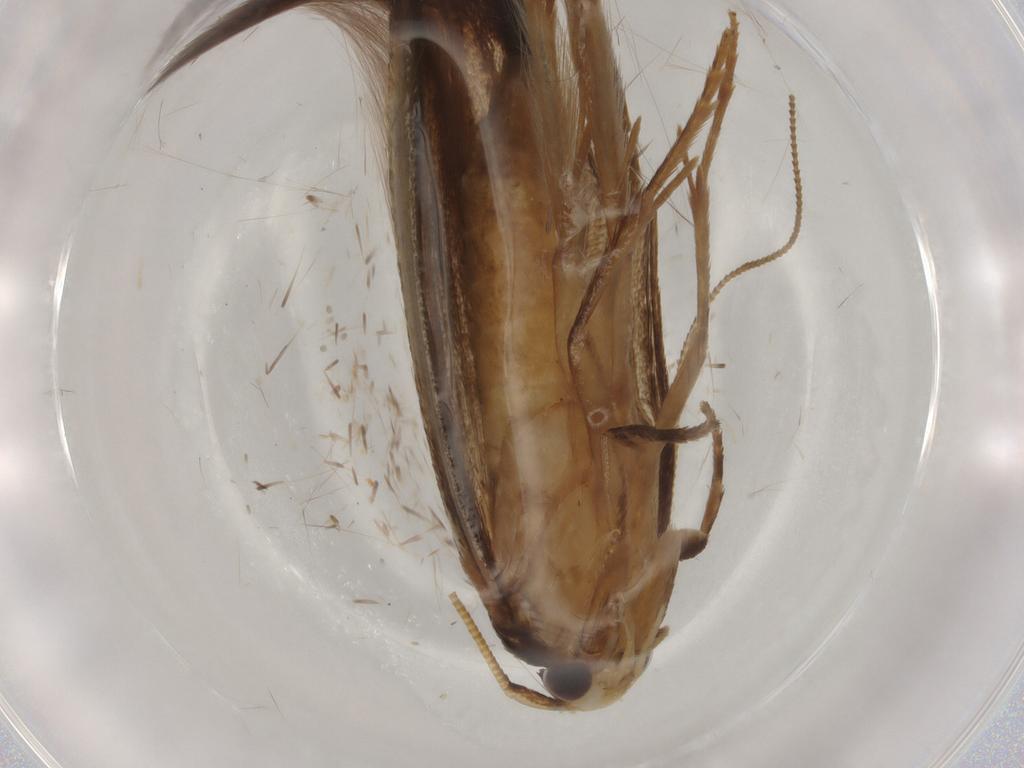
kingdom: Animalia
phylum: Arthropoda
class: Insecta
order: Lepidoptera
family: Tineidae
